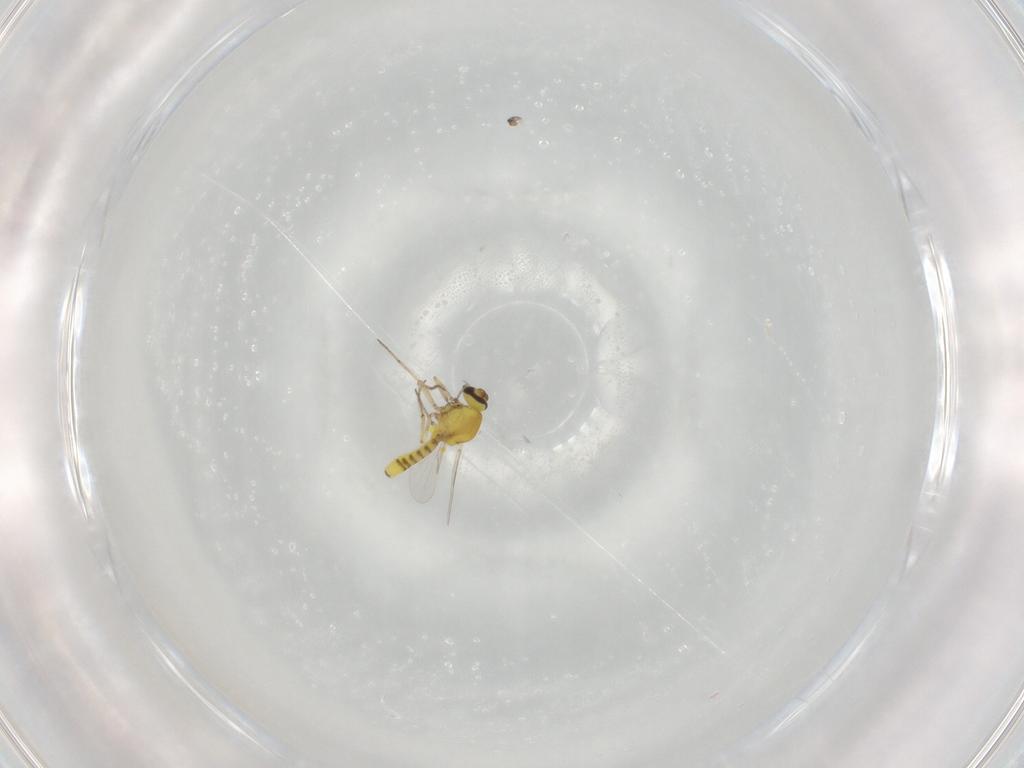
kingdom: Animalia
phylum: Arthropoda
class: Insecta
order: Diptera
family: Ceratopogonidae
